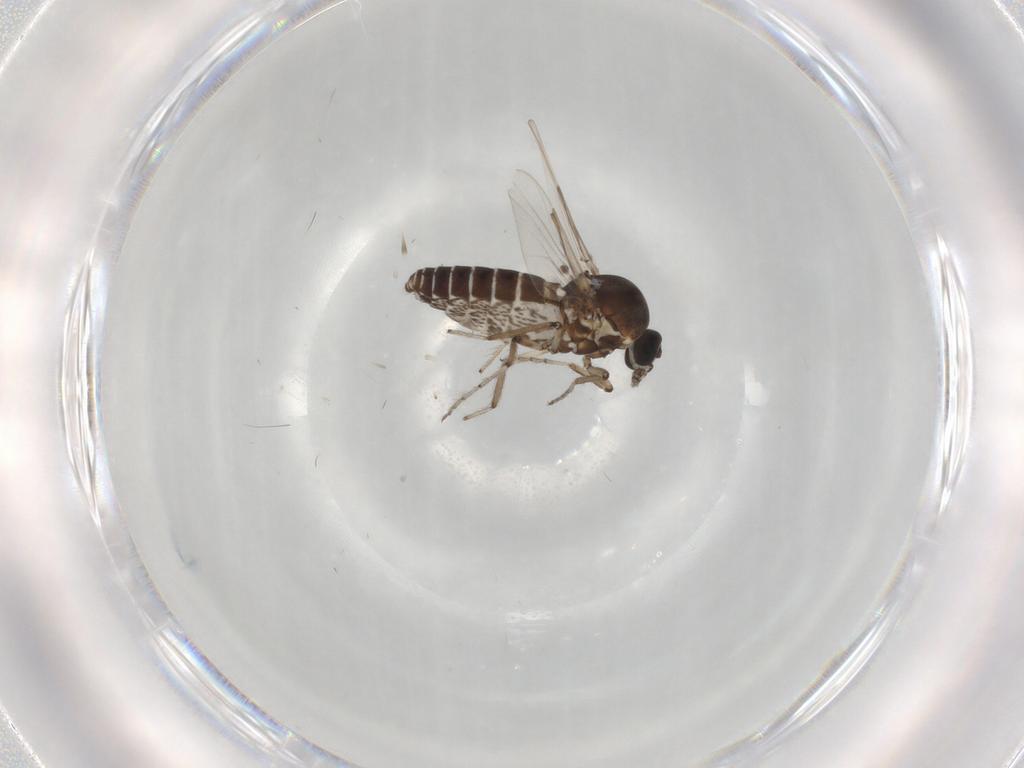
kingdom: Animalia
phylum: Arthropoda
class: Insecta
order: Diptera
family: Ceratopogonidae
